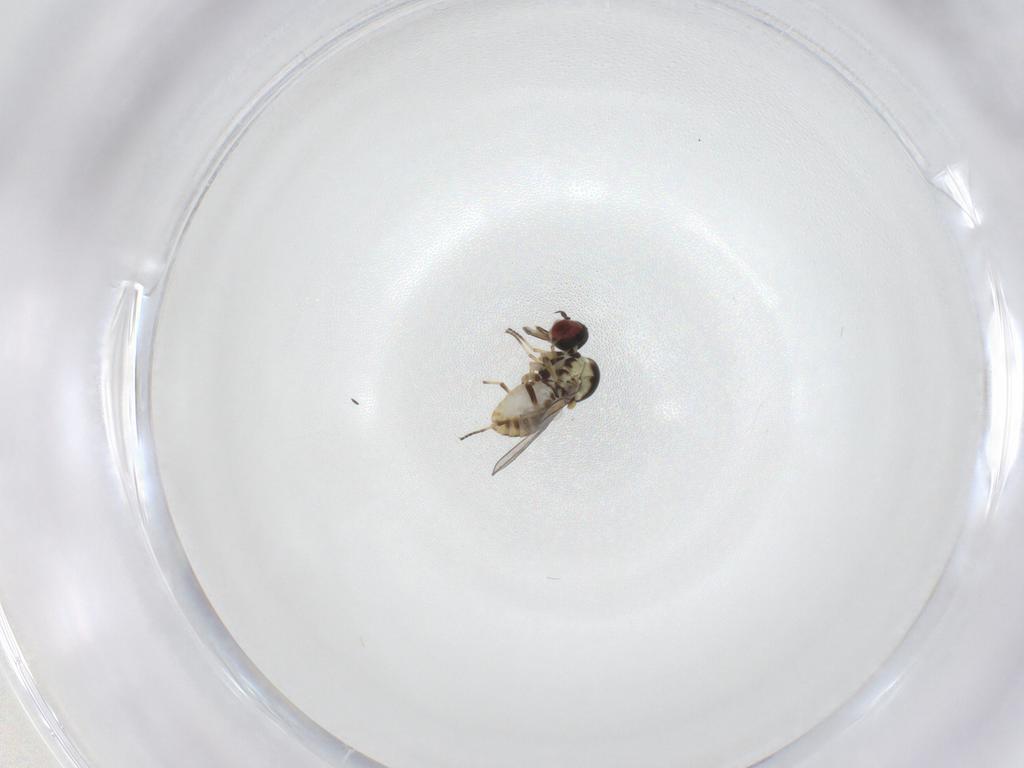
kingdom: Animalia
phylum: Arthropoda
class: Insecta
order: Diptera
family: Mythicomyiidae
